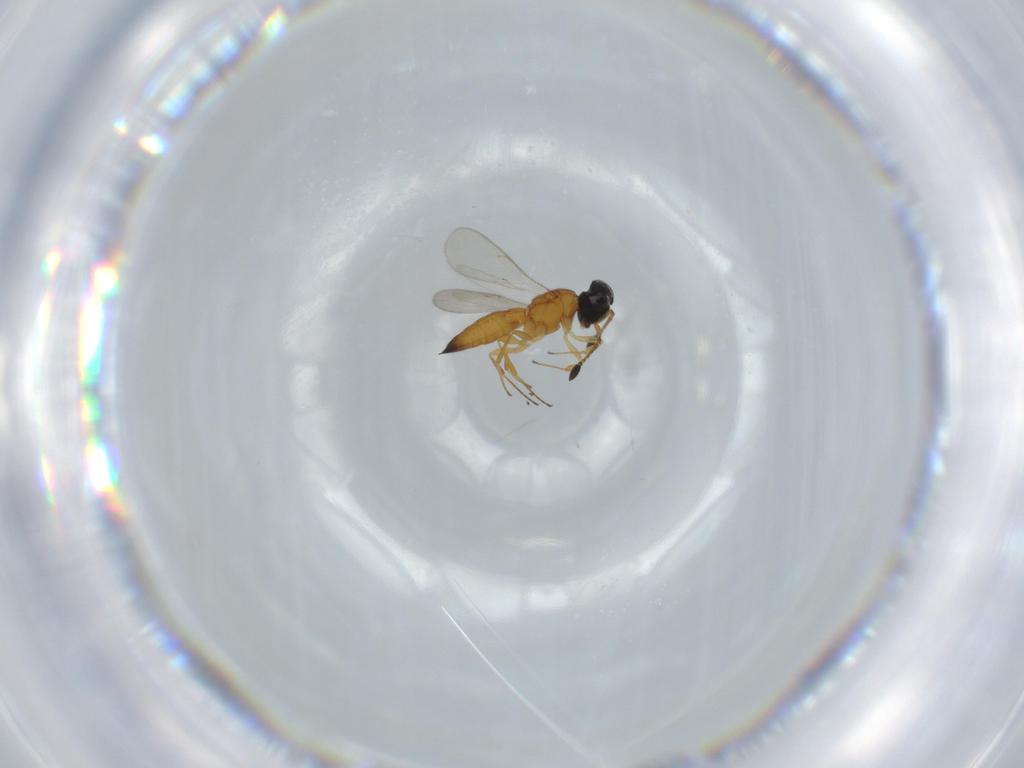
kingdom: Animalia
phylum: Arthropoda
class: Insecta
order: Hymenoptera
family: Scelionidae
